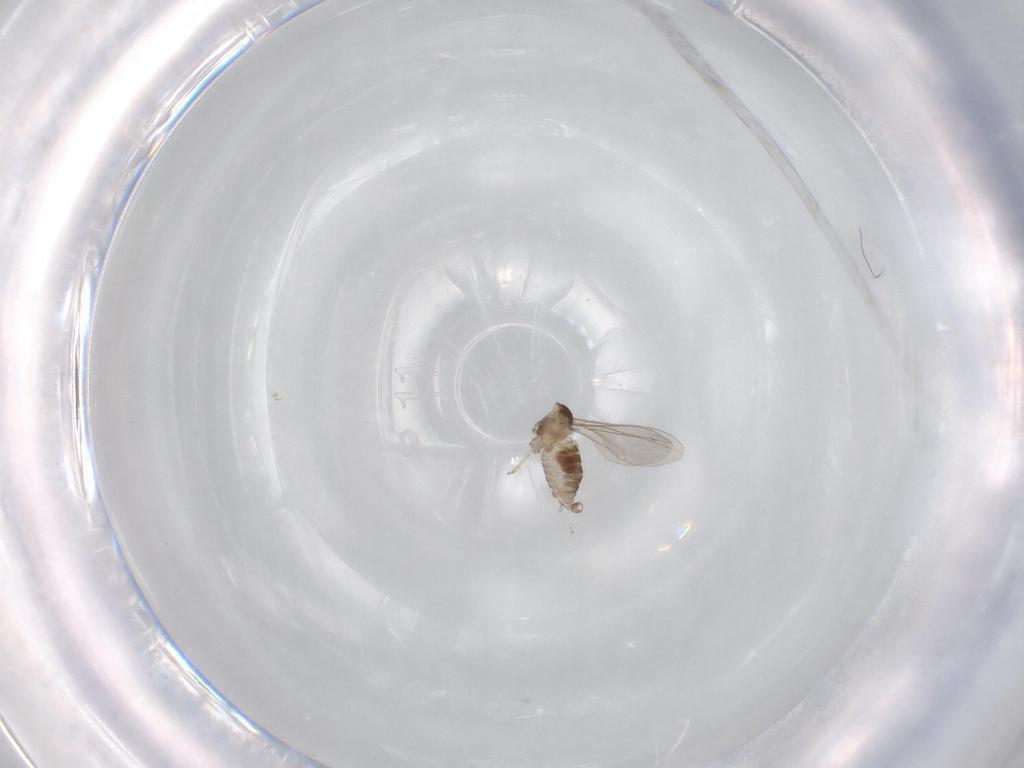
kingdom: Animalia
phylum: Arthropoda
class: Insecta
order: Diptera
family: Cecidomyiidae
